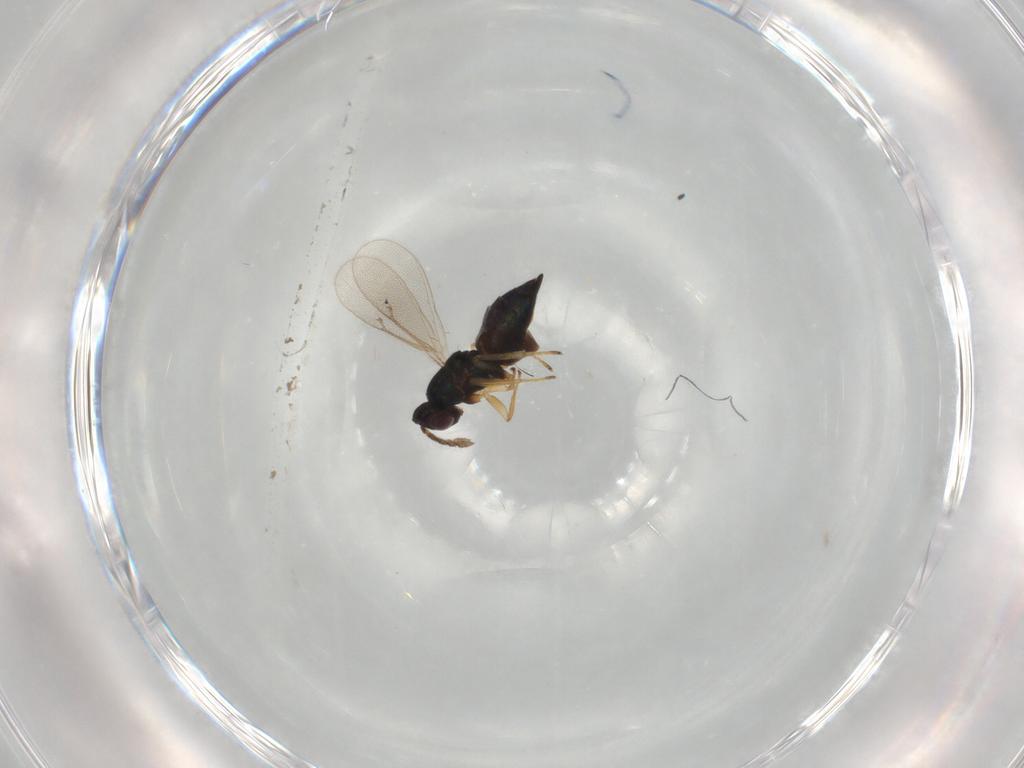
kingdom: Animalia
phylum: Arthropoda
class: Insecta
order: Hymenoptera
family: Eulophidae
